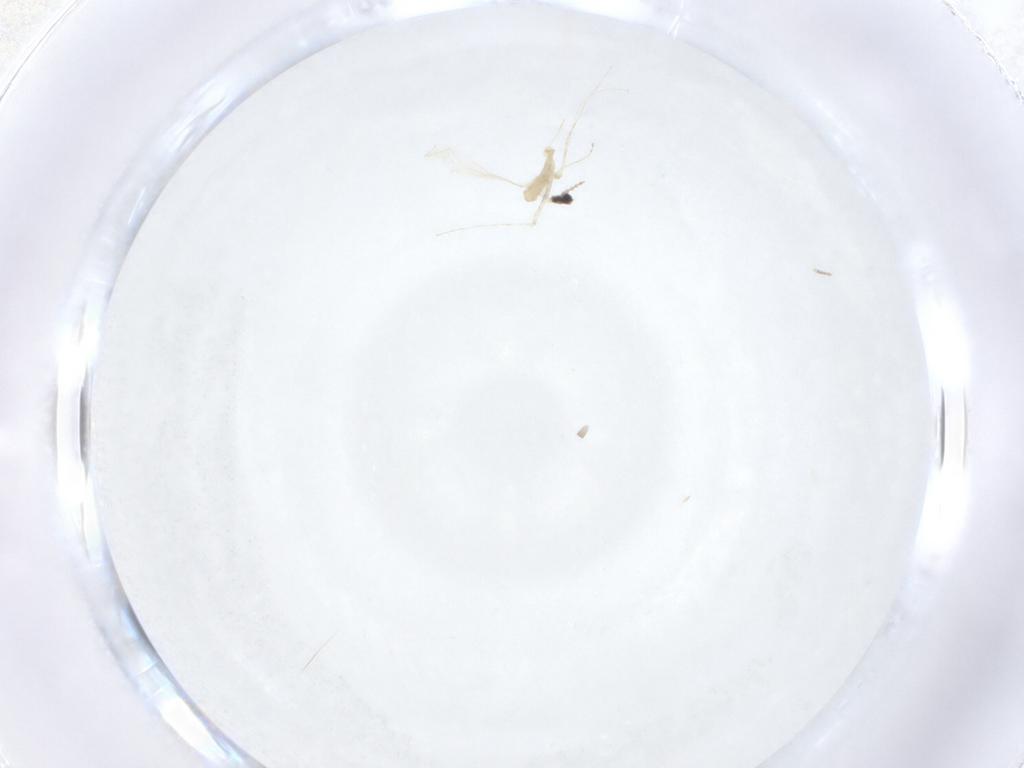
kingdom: Animalia
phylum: Arthropoda
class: Insecta
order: Diptera
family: Cecidomyiidae
